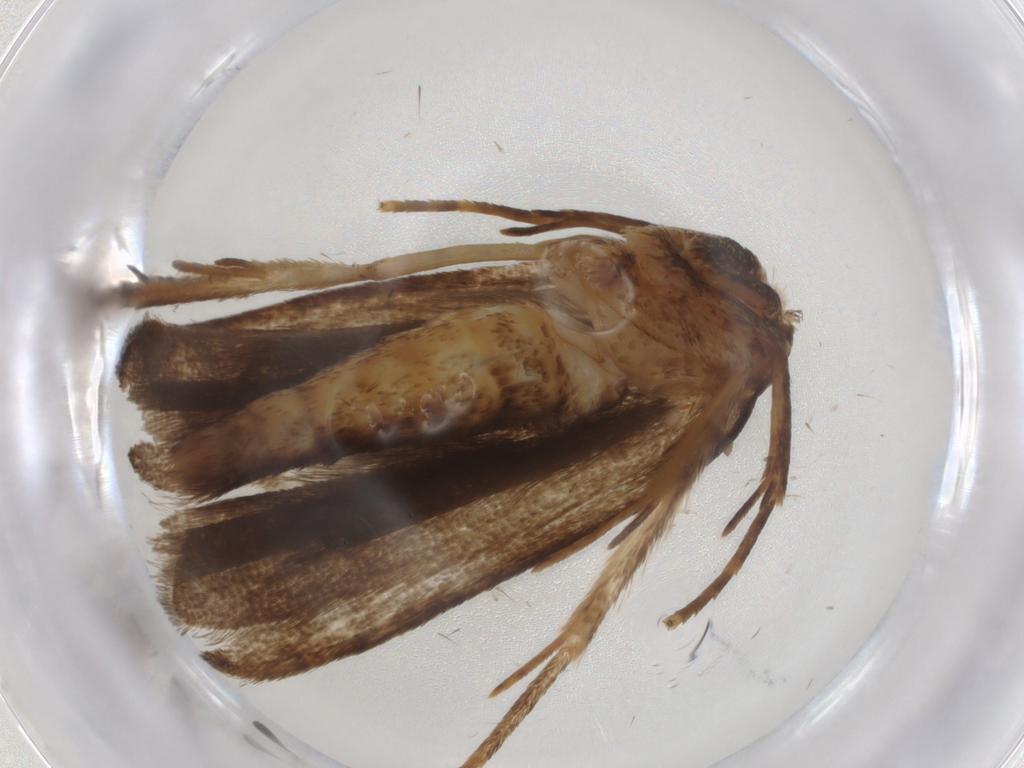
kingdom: Animalia
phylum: Arthropoda
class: Insecta
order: Lepidoptera
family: Autostichidae
